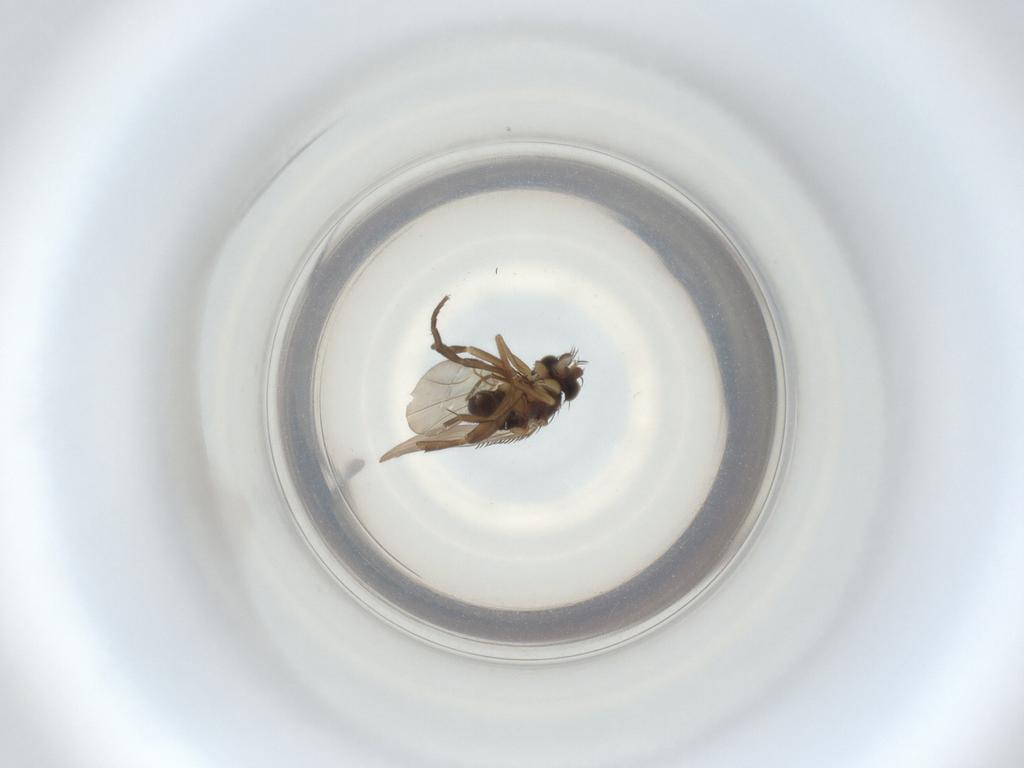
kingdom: Animalia
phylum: Arthropoda
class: Insecta
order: Diptera
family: Phoridae
